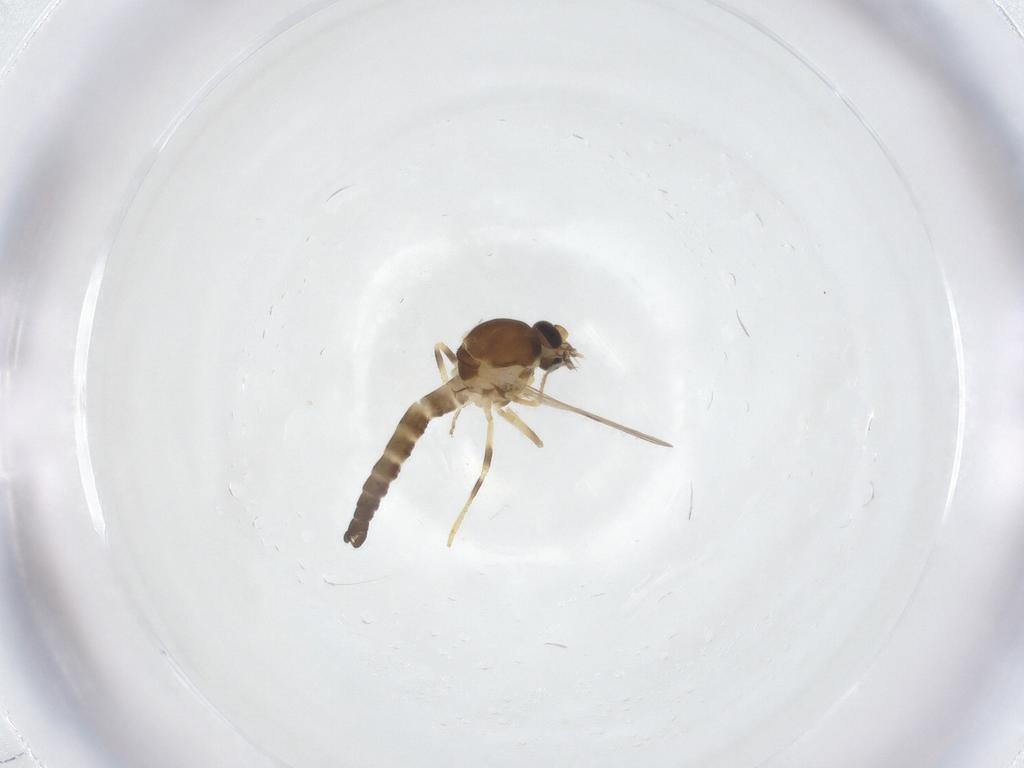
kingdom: Animalia
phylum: Arthropoda
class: Insecta
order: Diptera
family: Ceratopogonidae
